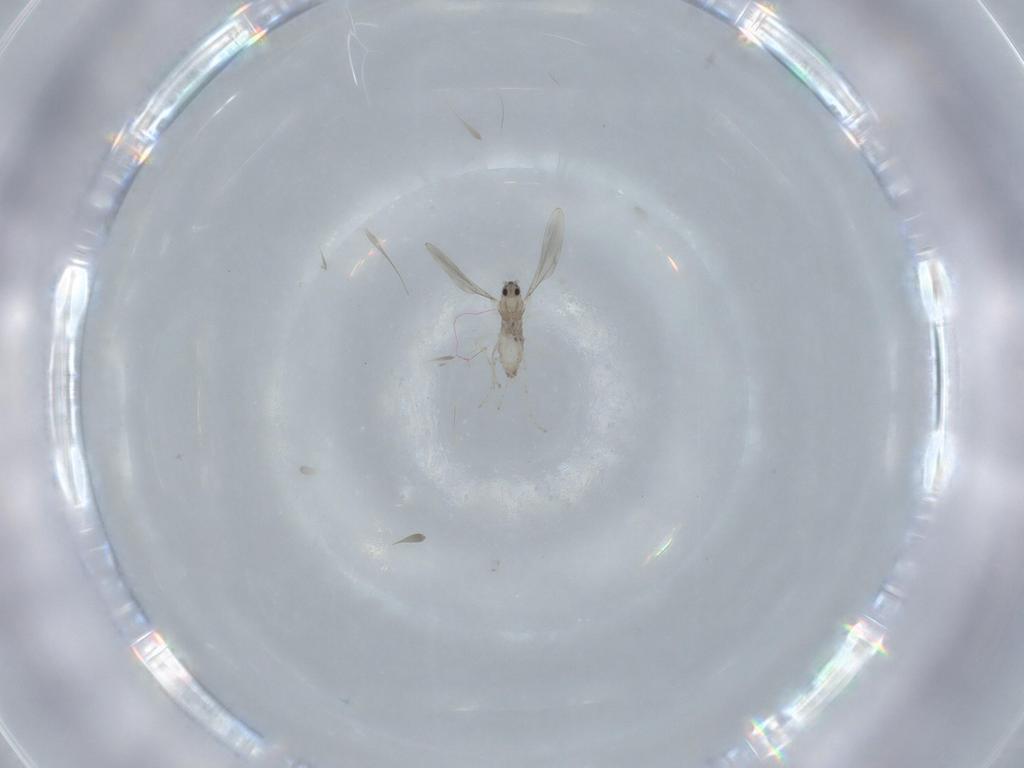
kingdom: Animalia
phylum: Arthropoda
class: Insecta
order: Diptera
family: Cecidomyiidae
